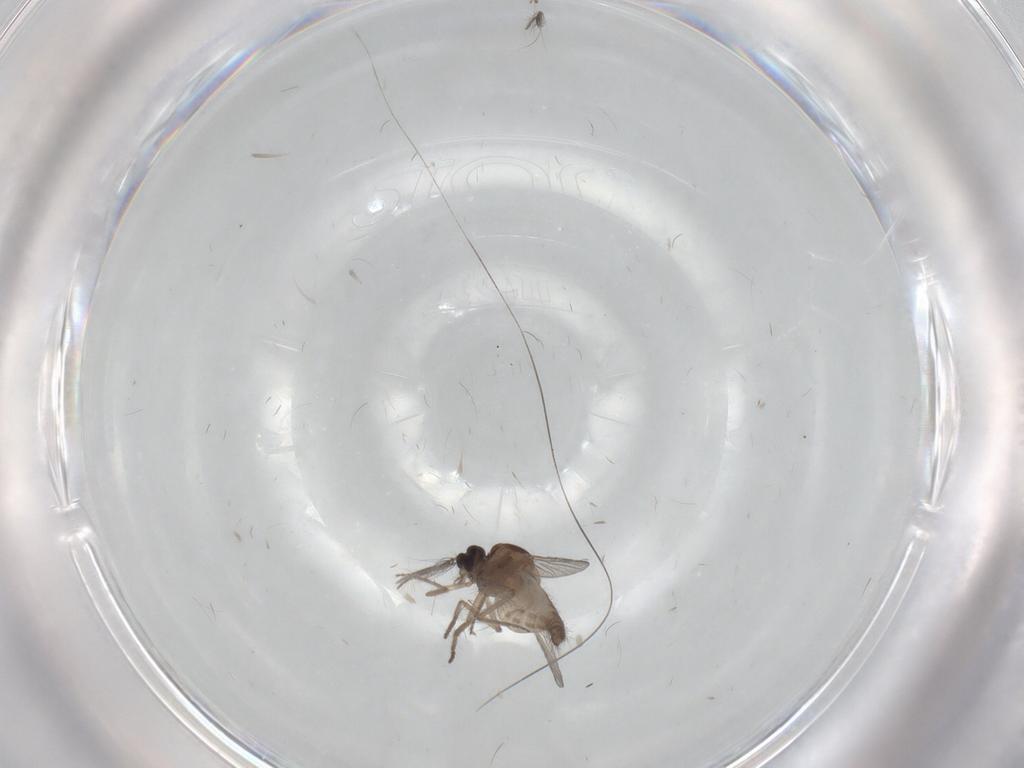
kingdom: Animalia
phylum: Arthropoda
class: Insecta
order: Diptera
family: Psychodidae
